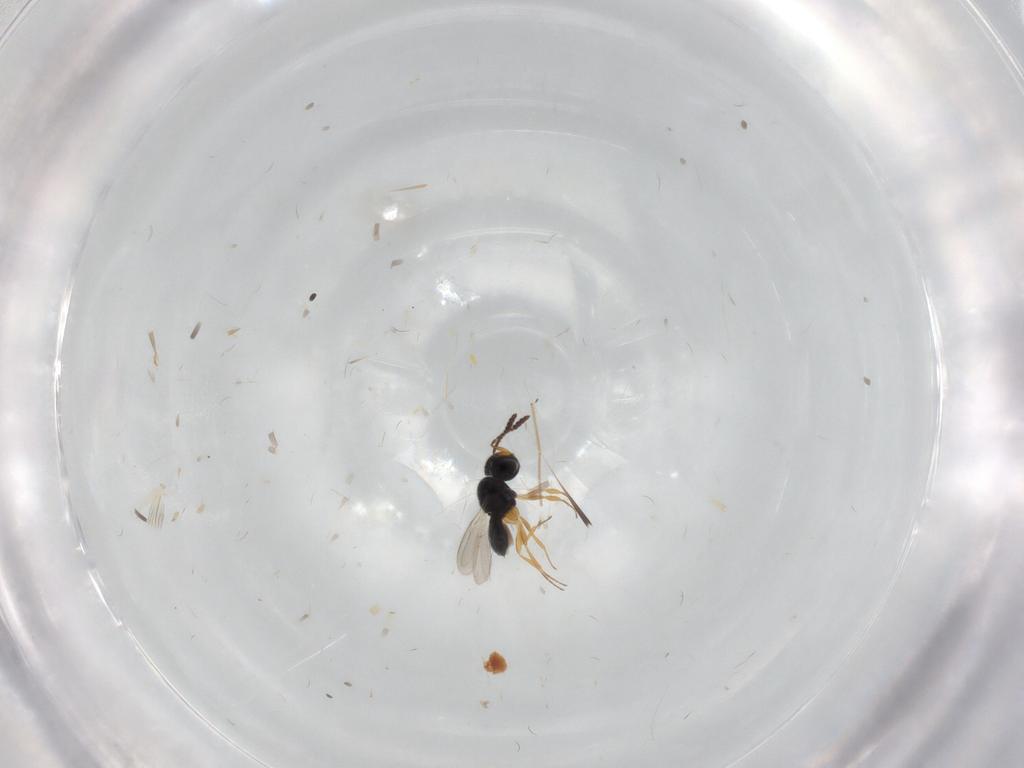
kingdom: Animalia
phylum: Arthropoda
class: Insecta
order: Hymenoptera
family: Scelionidae
